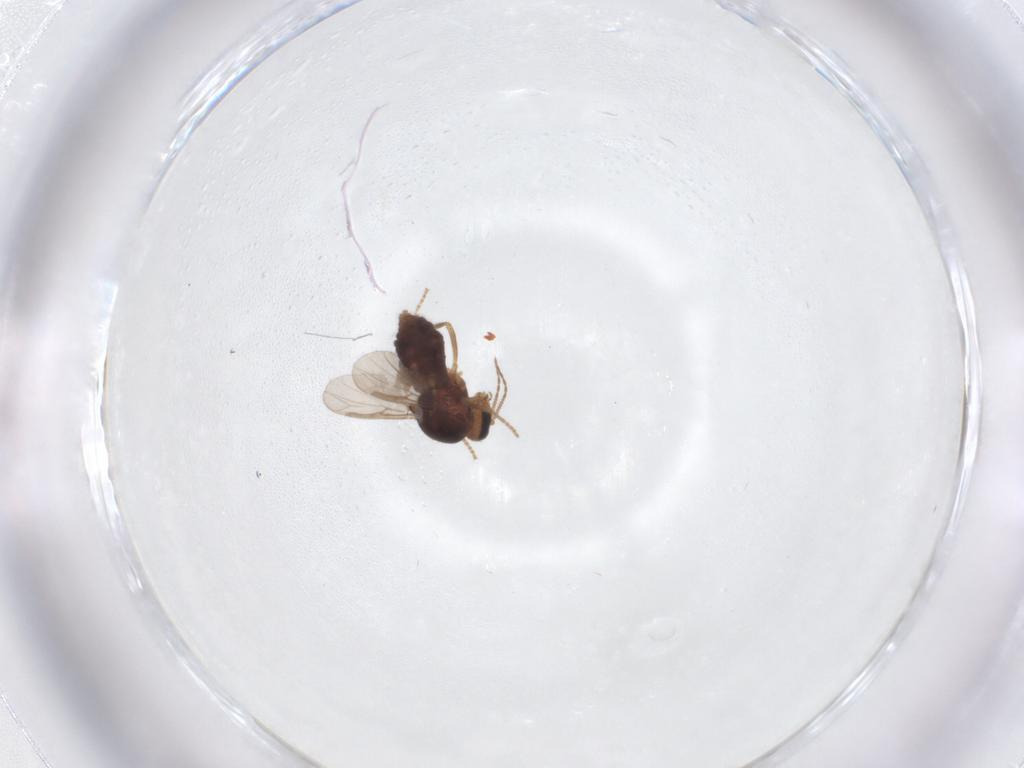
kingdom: Animalia
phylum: Arthropoda
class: Insecta
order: Diptera
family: Ceratopogonidae
